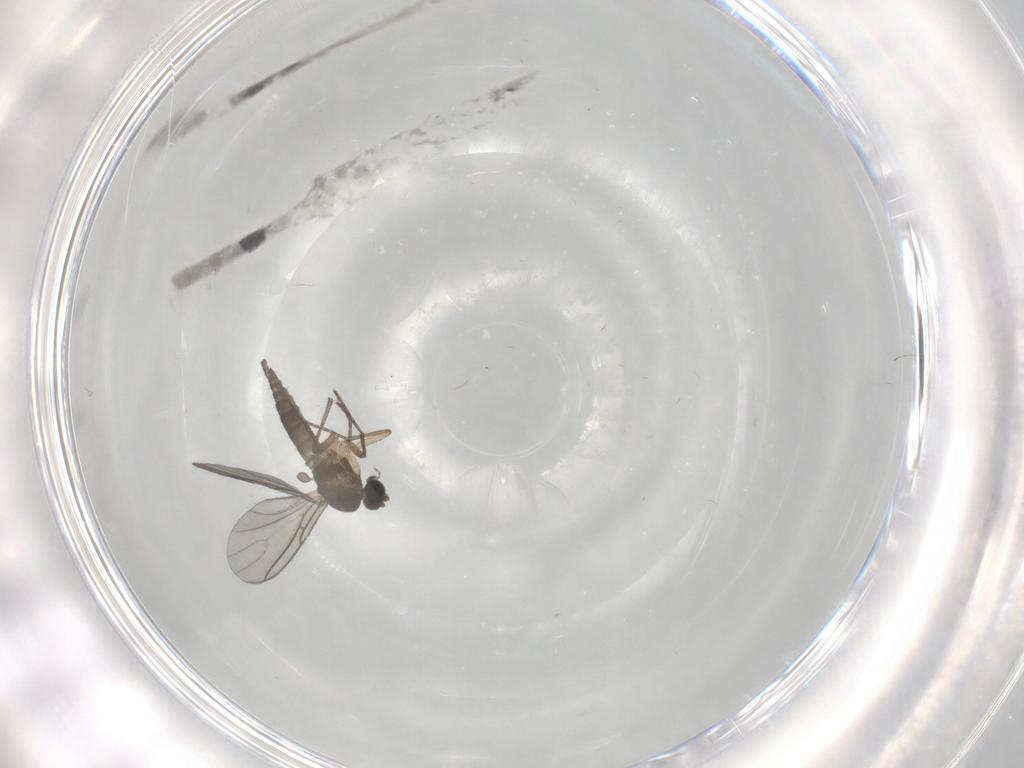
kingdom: Animalia
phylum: Arthropoda
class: Insecta
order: Diptera
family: Sciaridae
